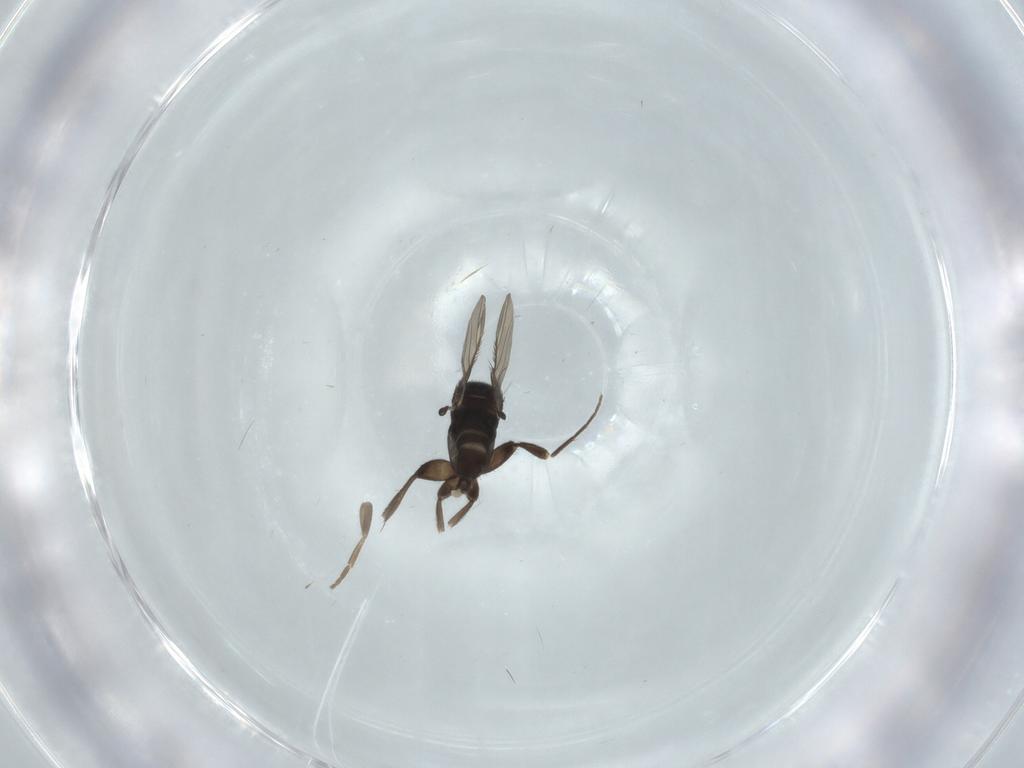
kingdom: Animalia
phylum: Arthropoda
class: Insecta
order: Diptera
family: Phoridae
